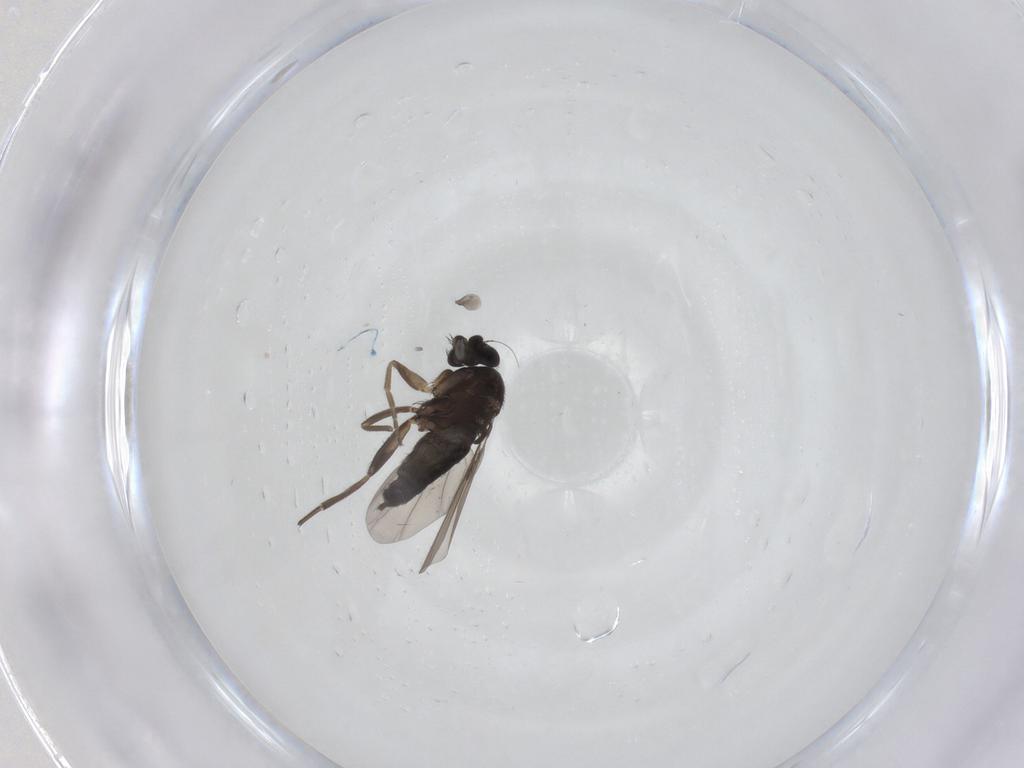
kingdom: Animalia
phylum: Arthropoda
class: Insecta
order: Diptera
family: Phoridae
